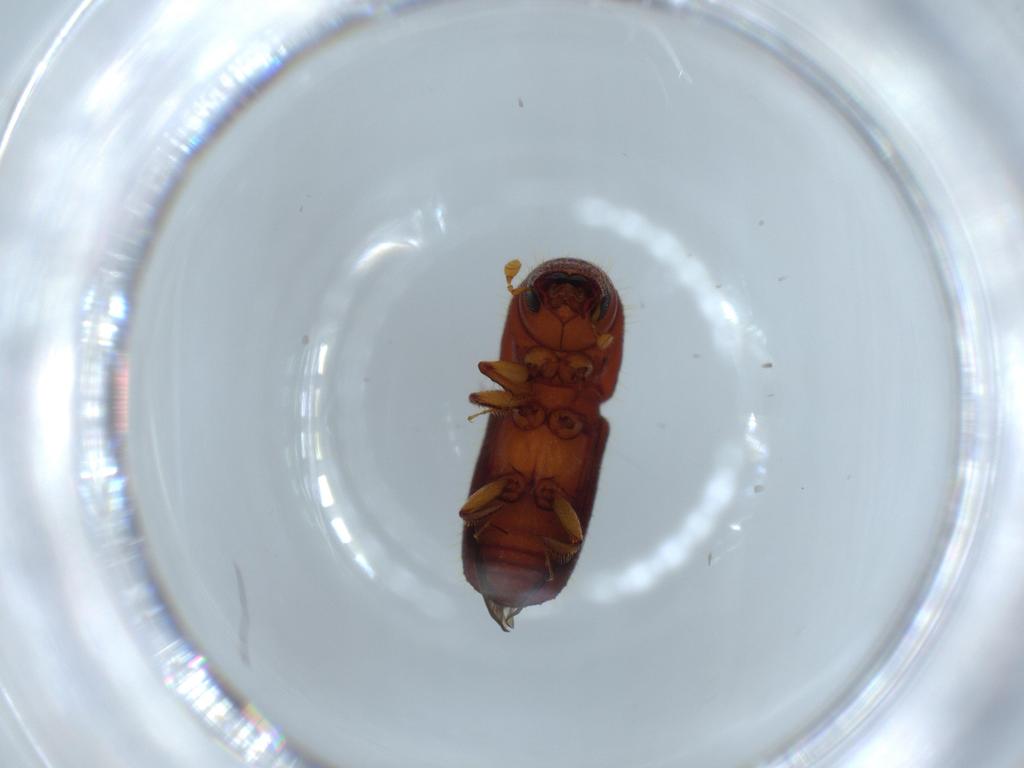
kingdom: Animalia
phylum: Arthropoda
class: Insecta
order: Coleoptera
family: Curculionidae
